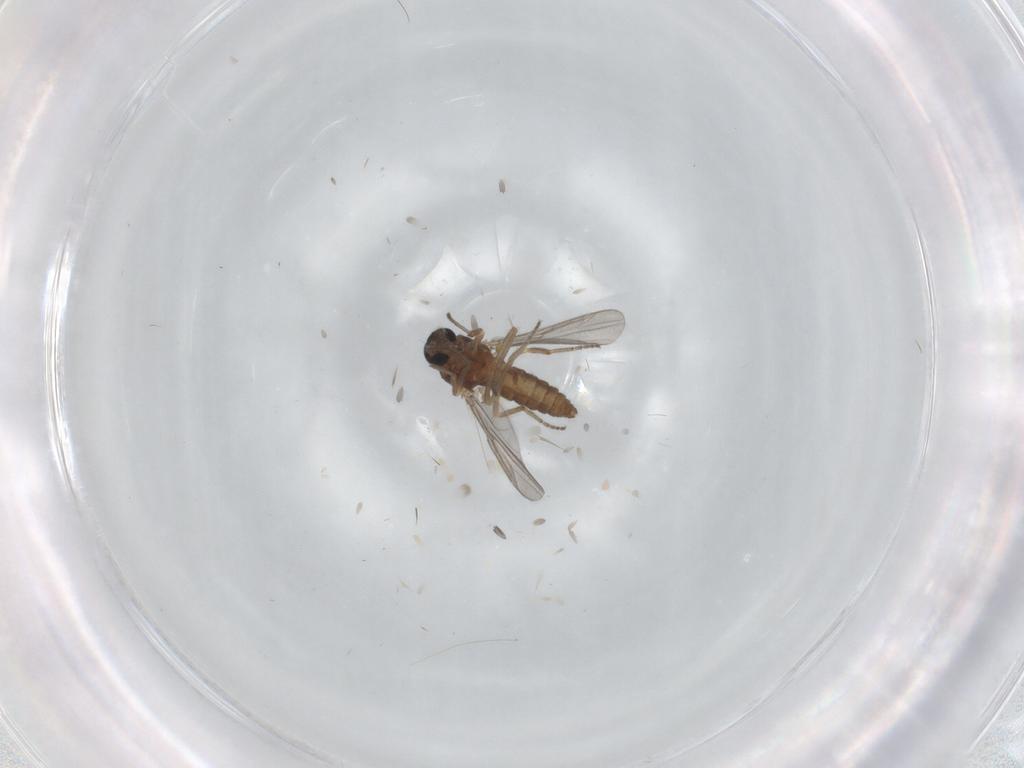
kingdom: Animalia
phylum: Arthropoda
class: Insecta
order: Diptera
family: Ceratopogonidae
